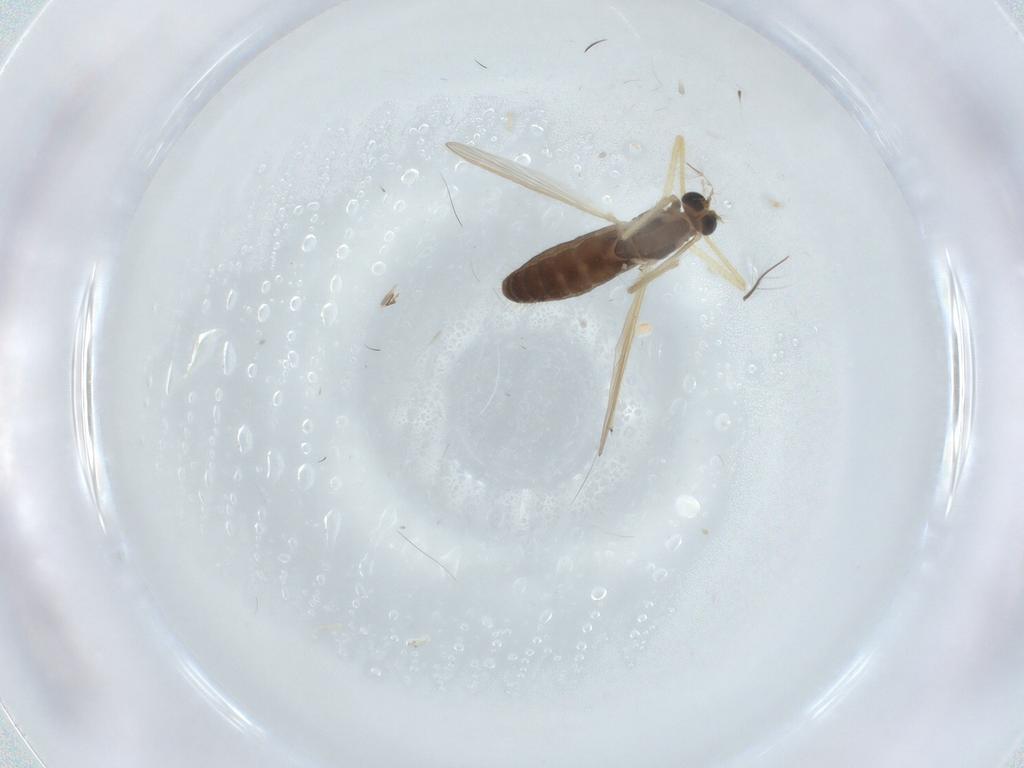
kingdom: Animalia
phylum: Arthropoda
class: Insecta
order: Diptera
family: Chironomidae
